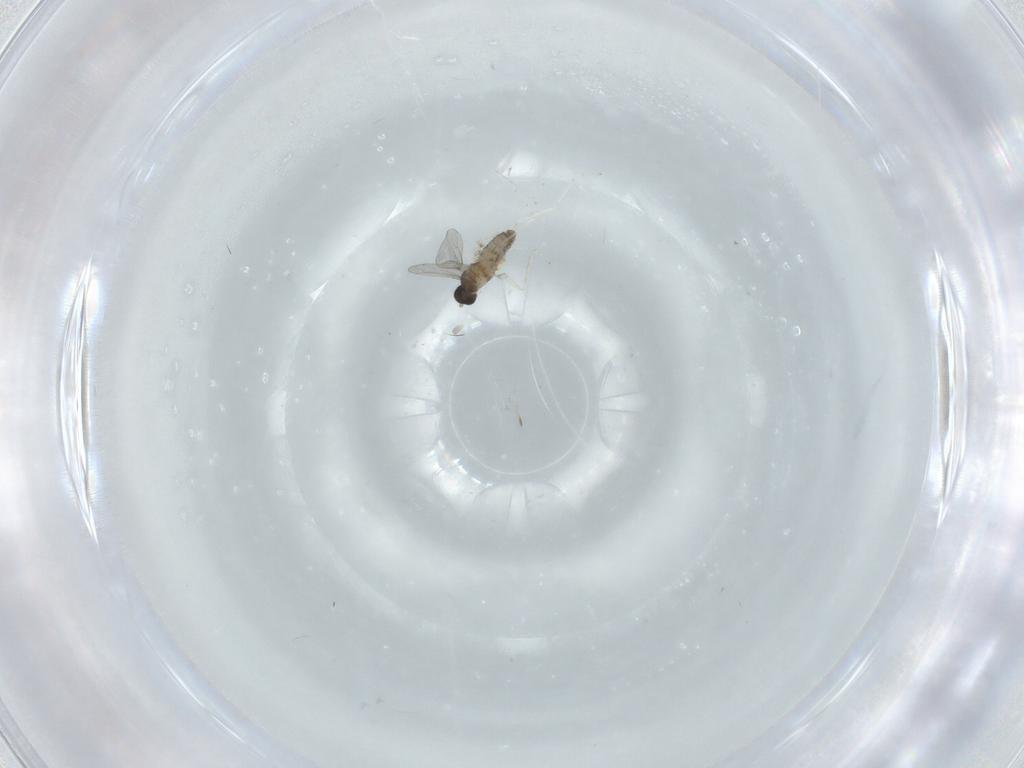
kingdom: Animalia
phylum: Arthropoda
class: Insecta
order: Diptera
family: Cecidomyiidae
